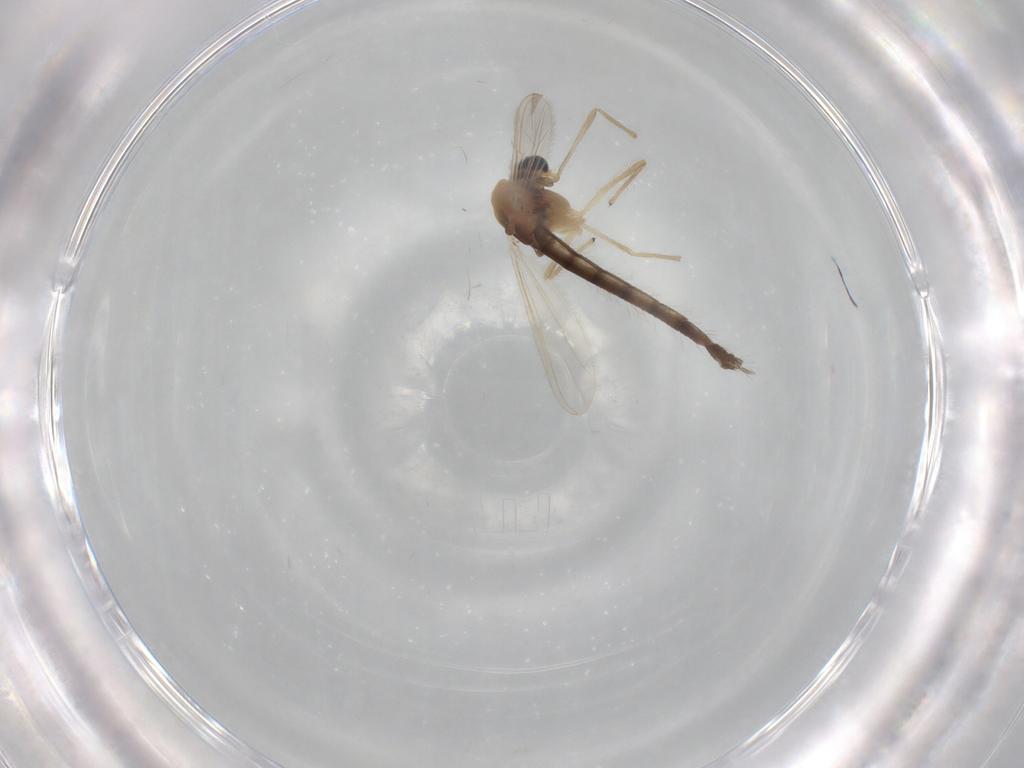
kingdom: Animalia
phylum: Arthropoda
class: Insecta
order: Diptera
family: Chironomidae
